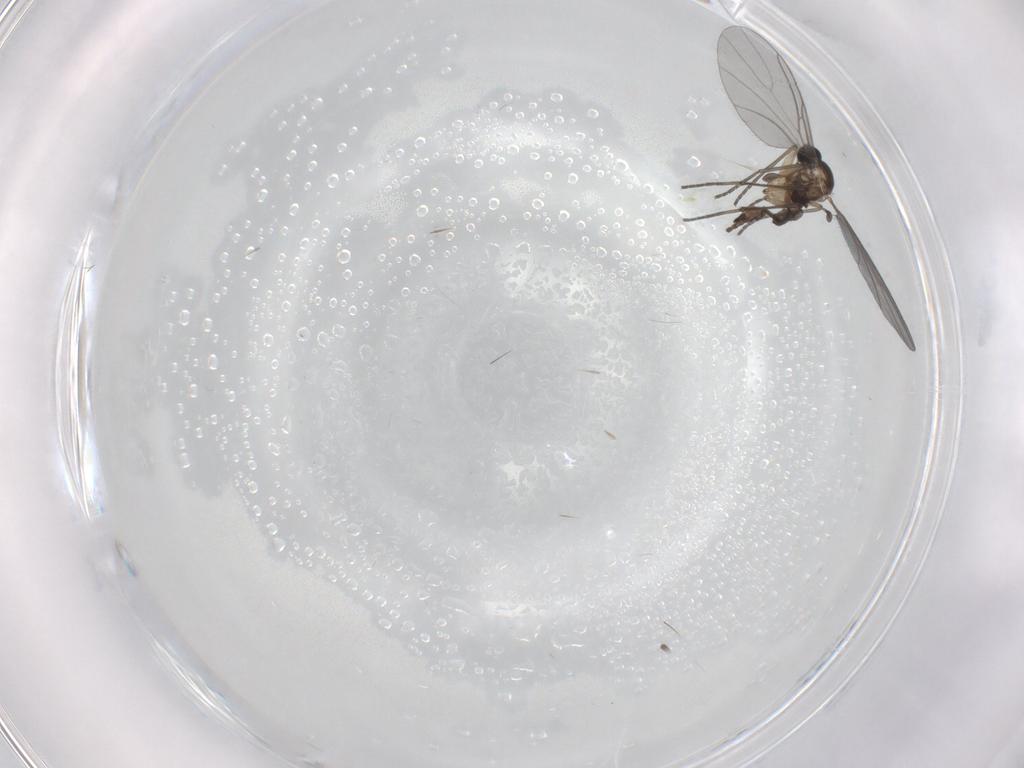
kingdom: Animalia
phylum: Arthropoda
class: Insecta
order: Diptera
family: Sciaridae
